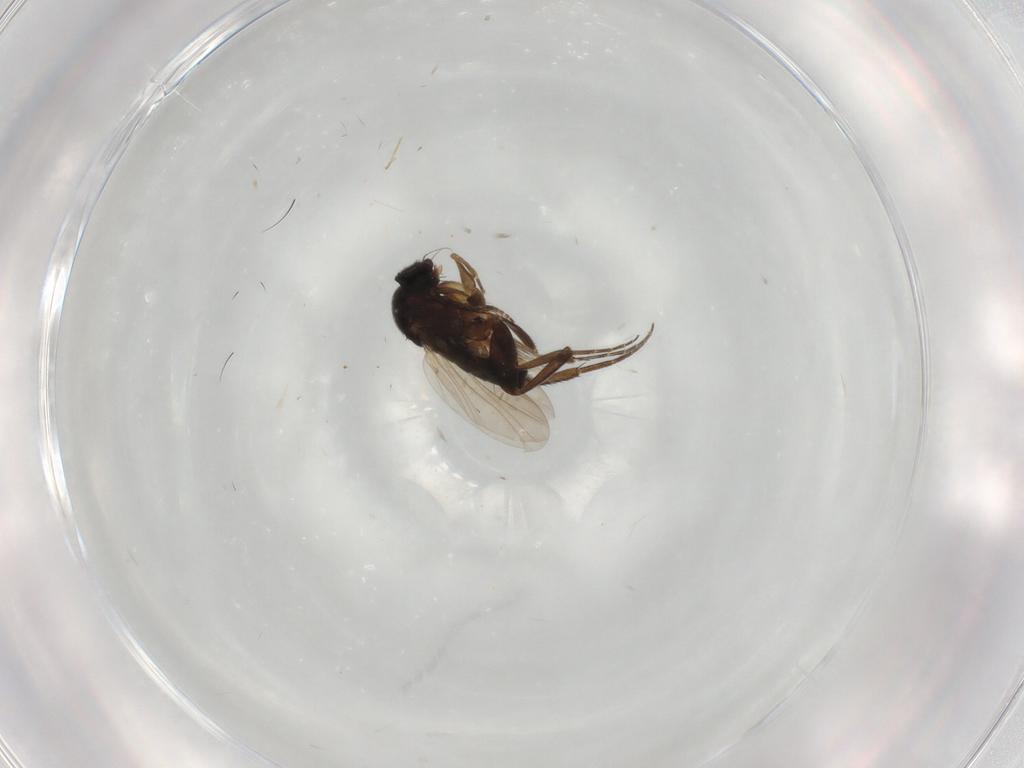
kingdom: Animalia
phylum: Arthropoda
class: Insecta
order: Diptera
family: Phoridae
